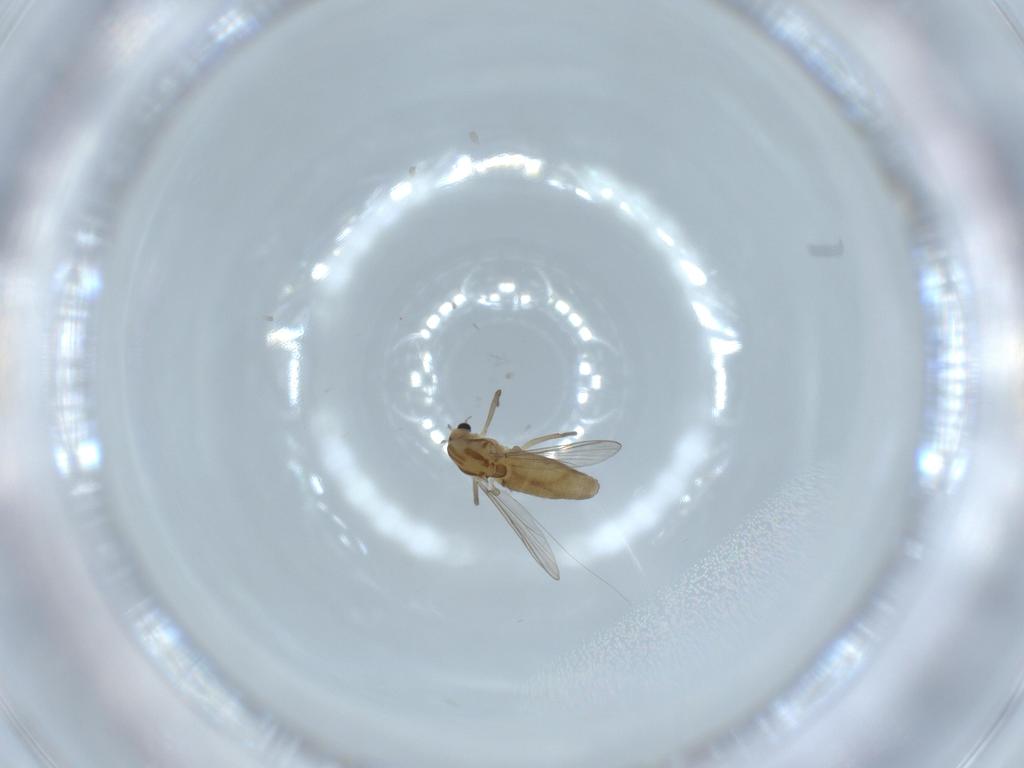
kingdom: Animalia
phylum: Arthropoda
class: Insecta
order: Diptera
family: Chironomidae
